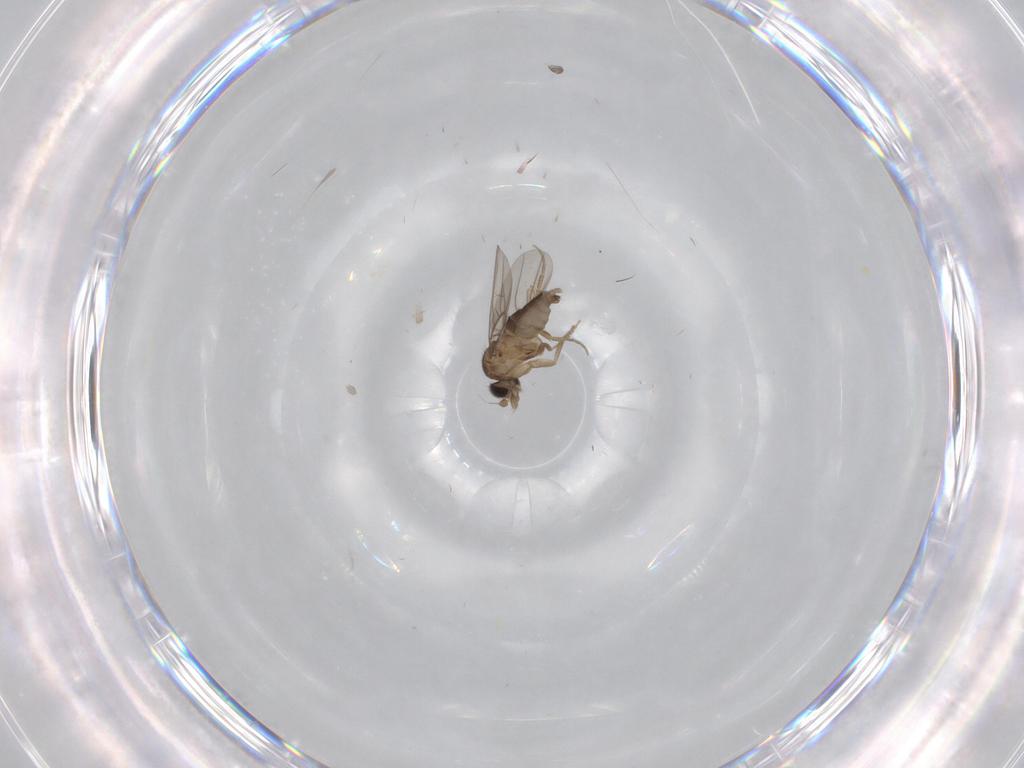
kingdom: Animalia
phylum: Arthropoda
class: Insecta
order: Diptera
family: Phoridae
